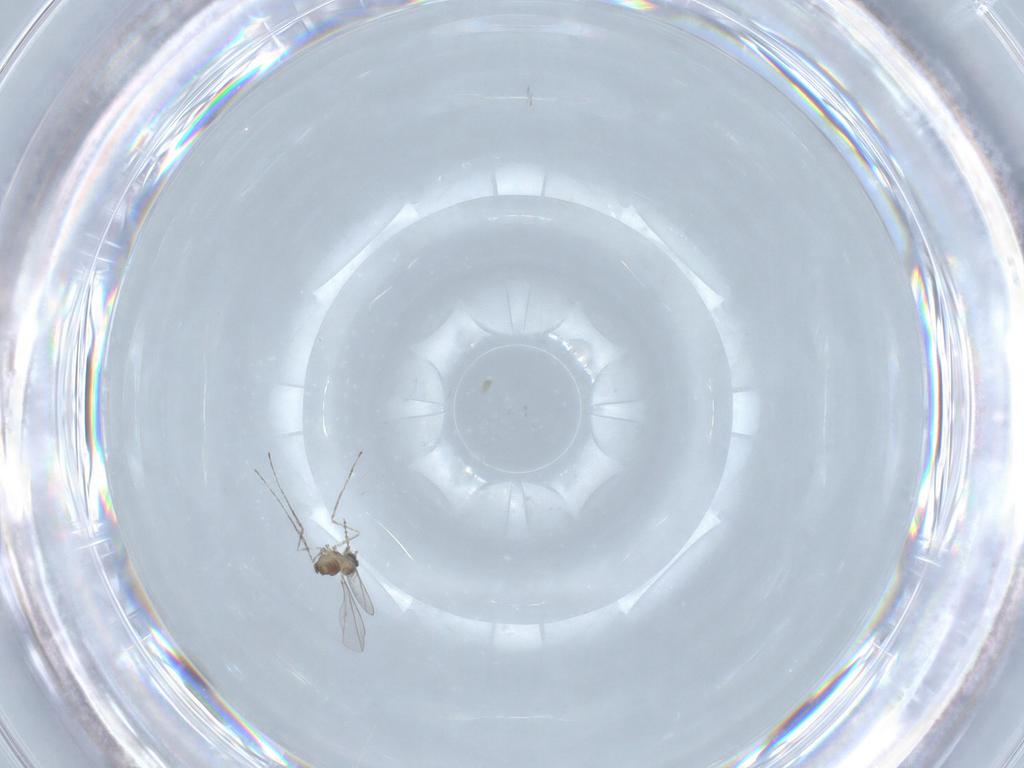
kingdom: Animalia
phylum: Arthropoda
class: Insecta
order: Diptera
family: Cecidomyiidae
